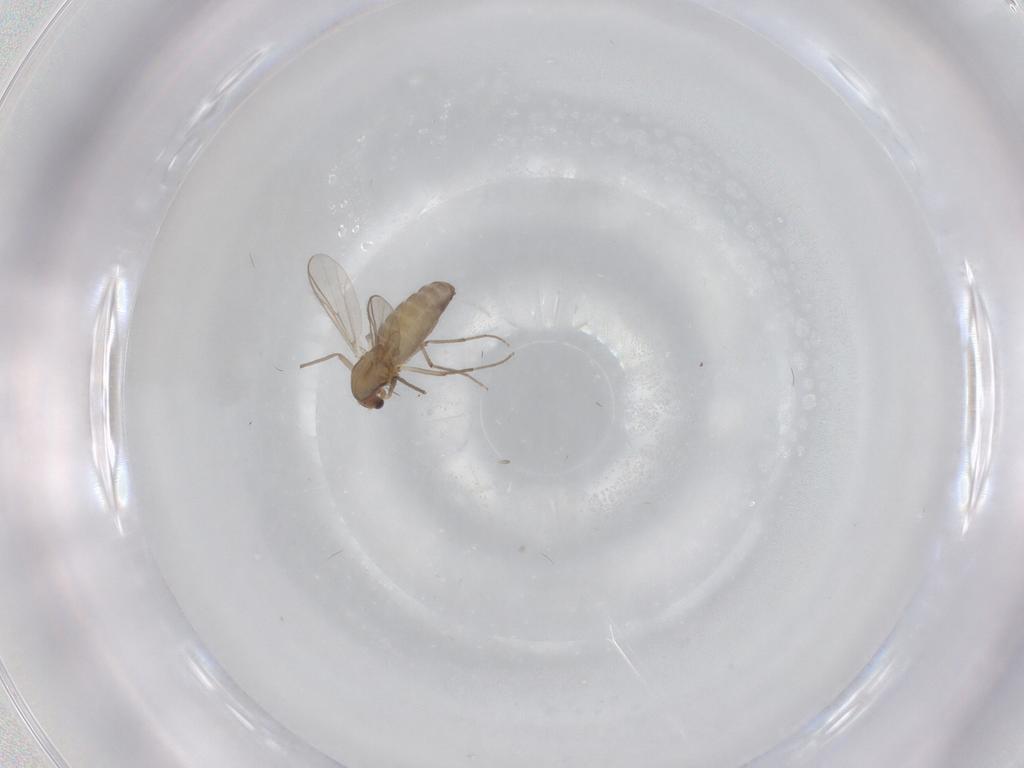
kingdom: Animalia
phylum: Arthropoda
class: Insecta
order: Diptera
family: Chironomidae
